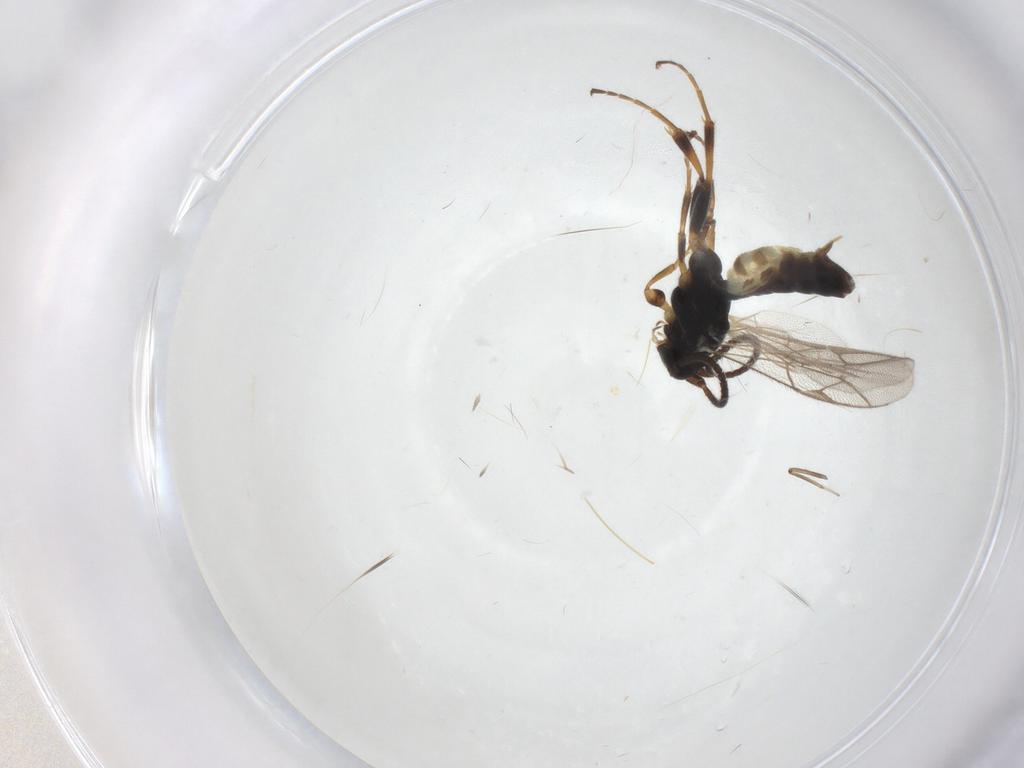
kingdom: Animalia
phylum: Arthropoda
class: Insecta
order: Hymenoptera
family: Ichneumonidae
